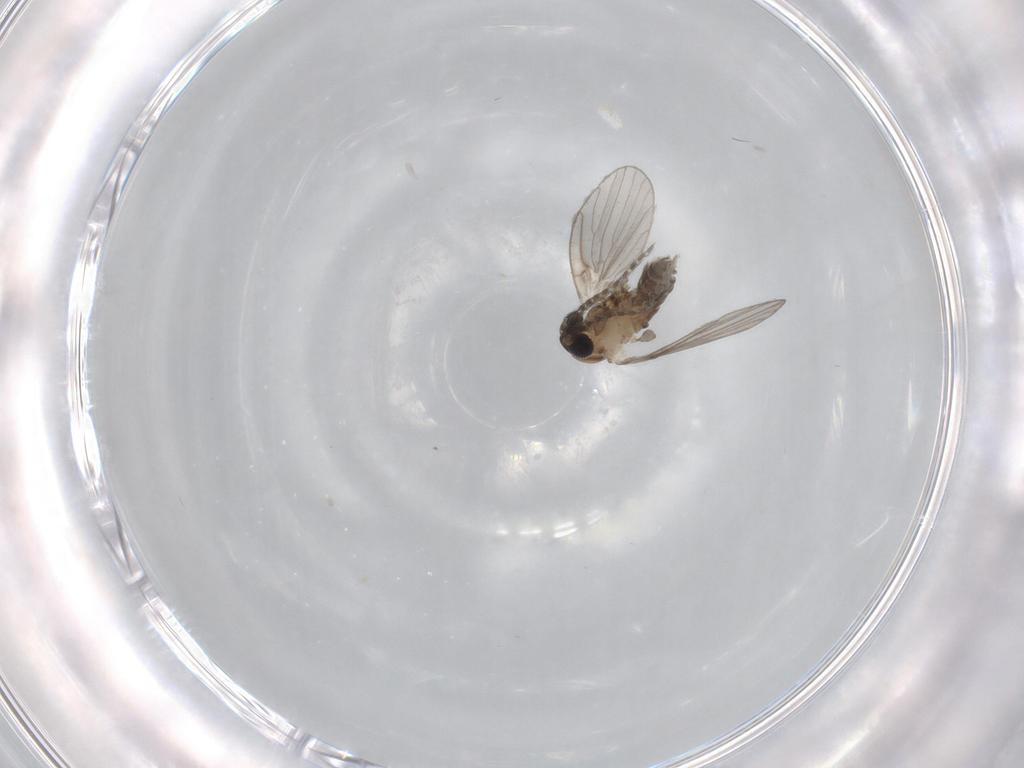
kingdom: Animalia
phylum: Arthropoda
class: Insecta
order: Diptera
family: Psychodidae
